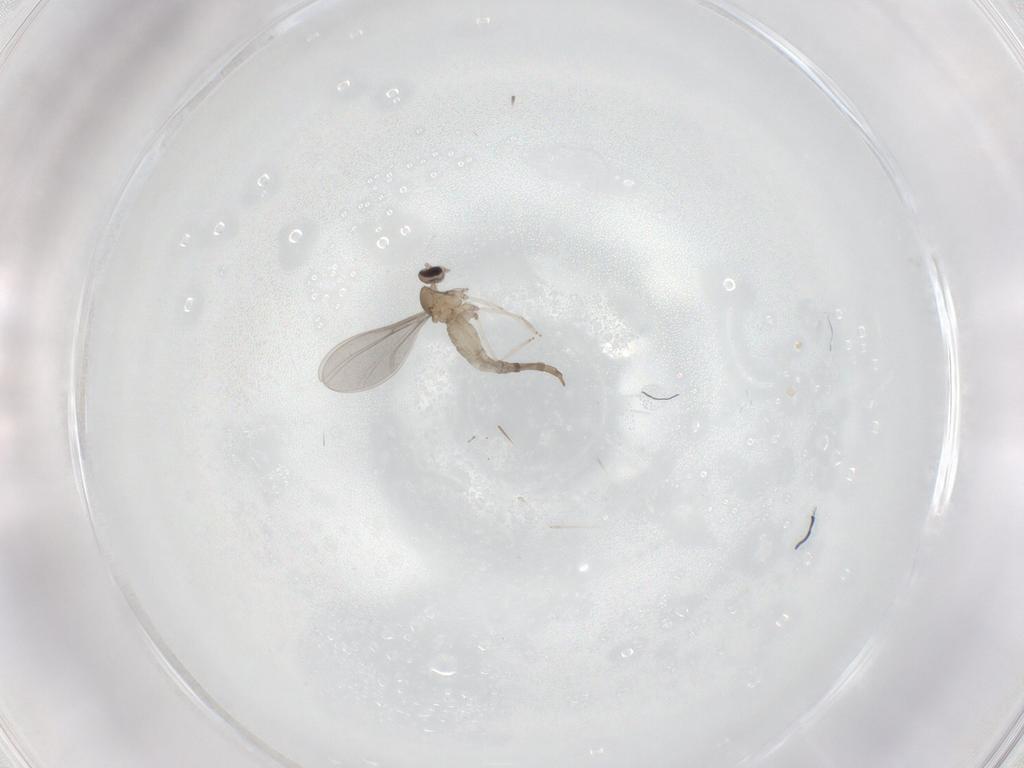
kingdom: Animalia
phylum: Arthropoda
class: Insecta
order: Diptera
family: Cecidomyiidae
